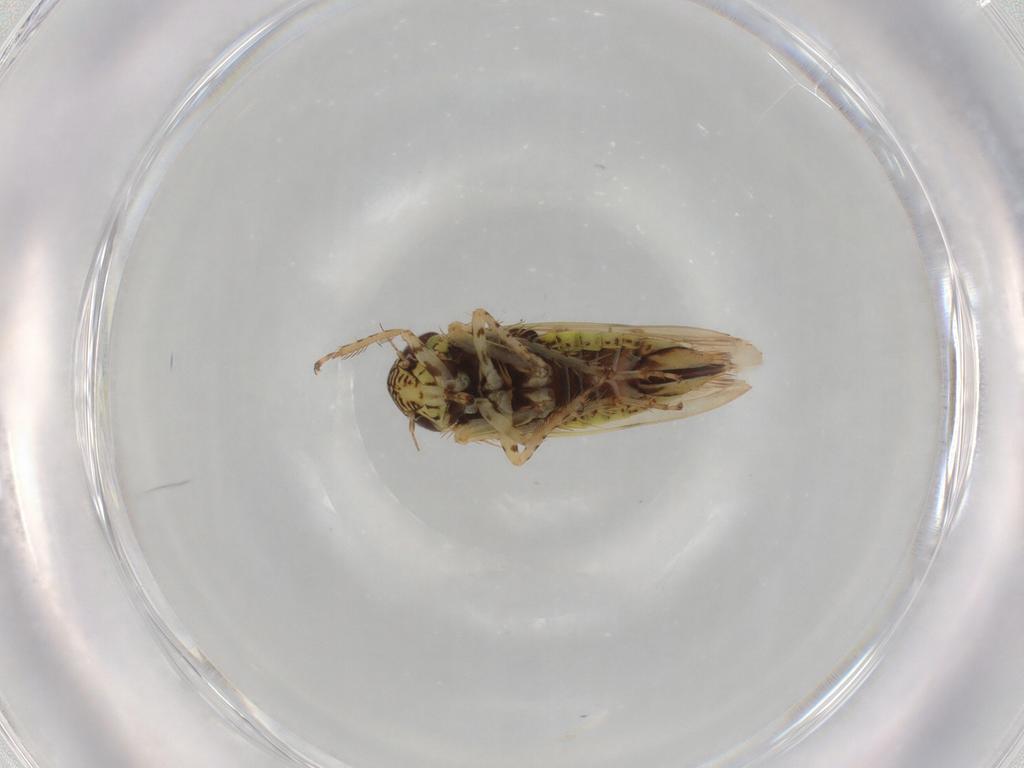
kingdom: Animalia
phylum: Arthropoda
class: Insecta
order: Hemiptera
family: Cicadellidae
